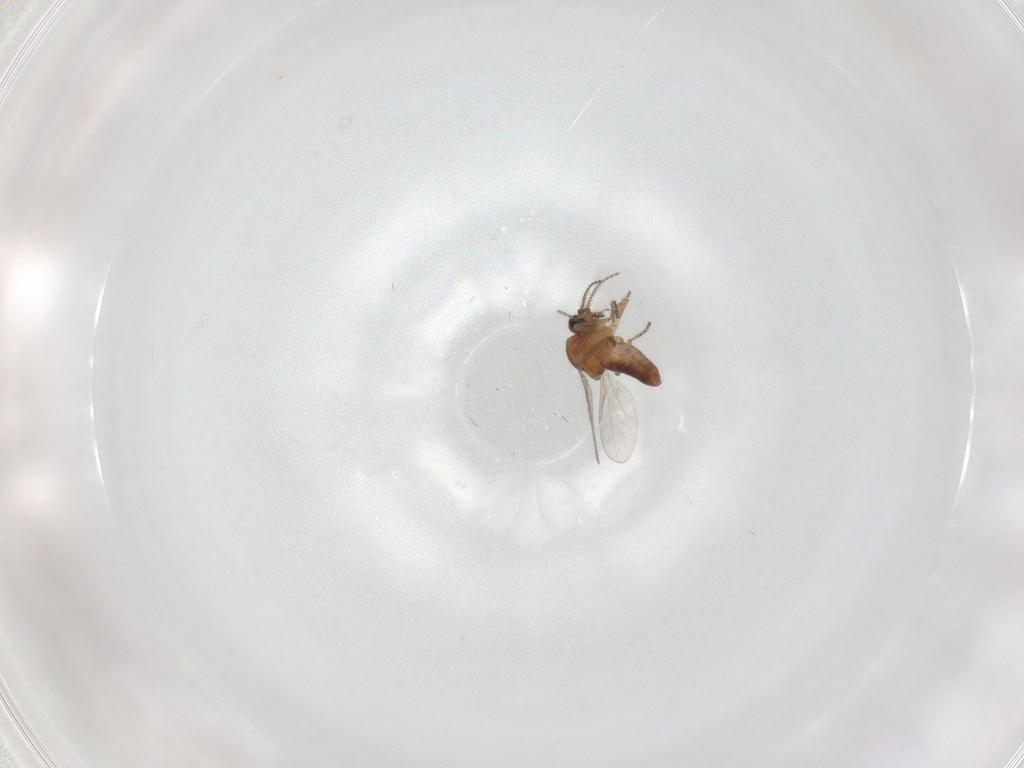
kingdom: Animalia
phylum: Arthropoda
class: Insecta
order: Diptera
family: Ceratopogonidae
